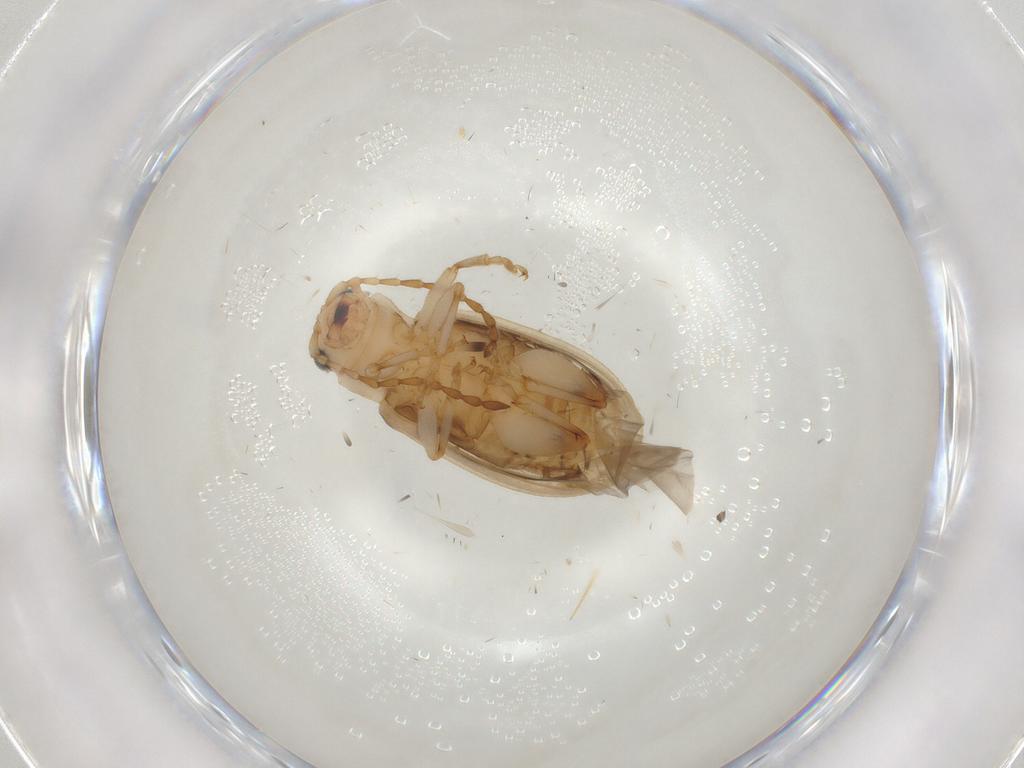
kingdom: Animalia
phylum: Arthropoda
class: Insecta
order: Coleoptera
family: Chrysomelidae
